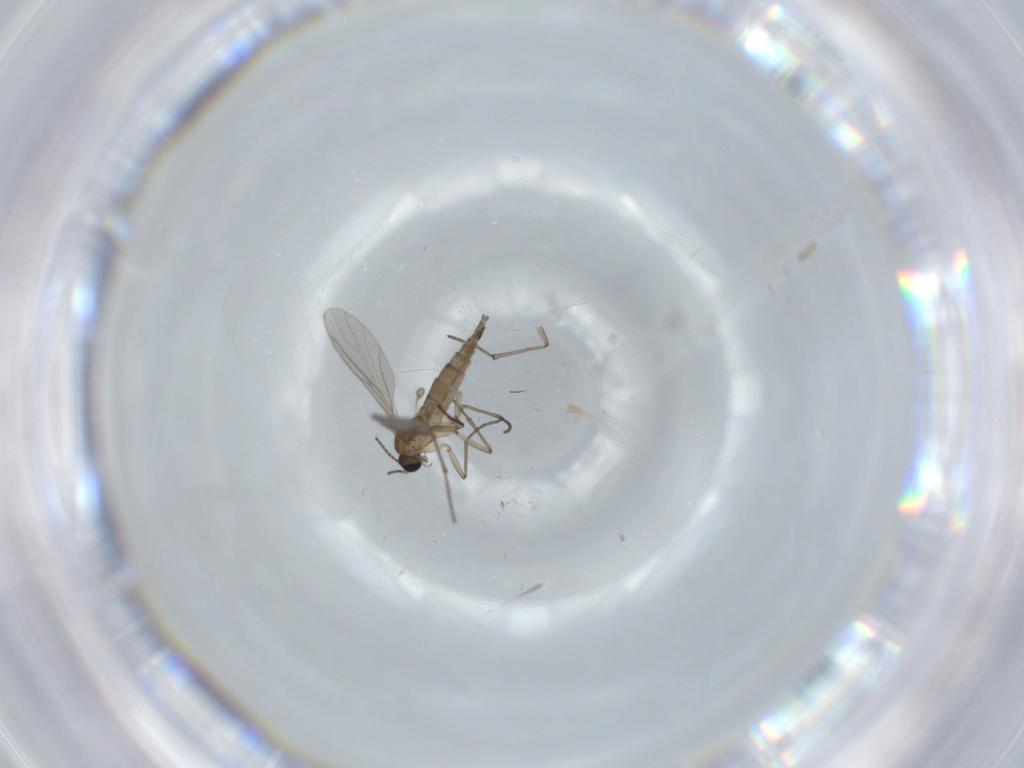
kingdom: Animalia
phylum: Arthropoda
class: Insecta
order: Diptera
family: Sciaridae
